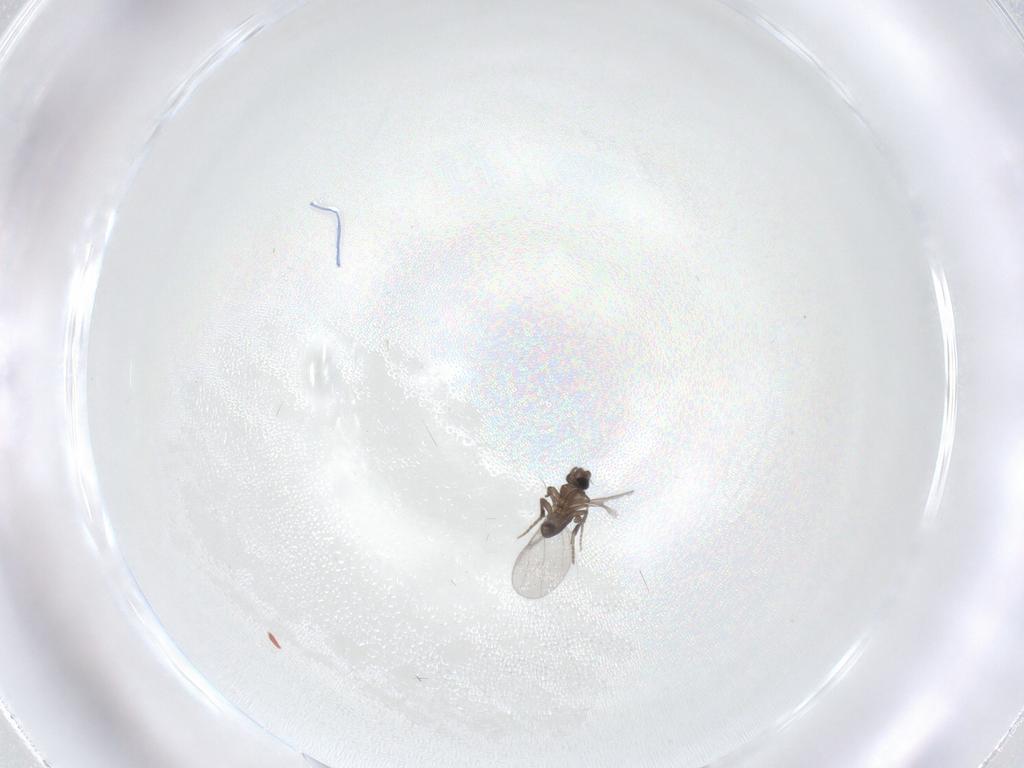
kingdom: Animalia
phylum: Arthropoda
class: Insecta
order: Diptera
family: Phoridae
